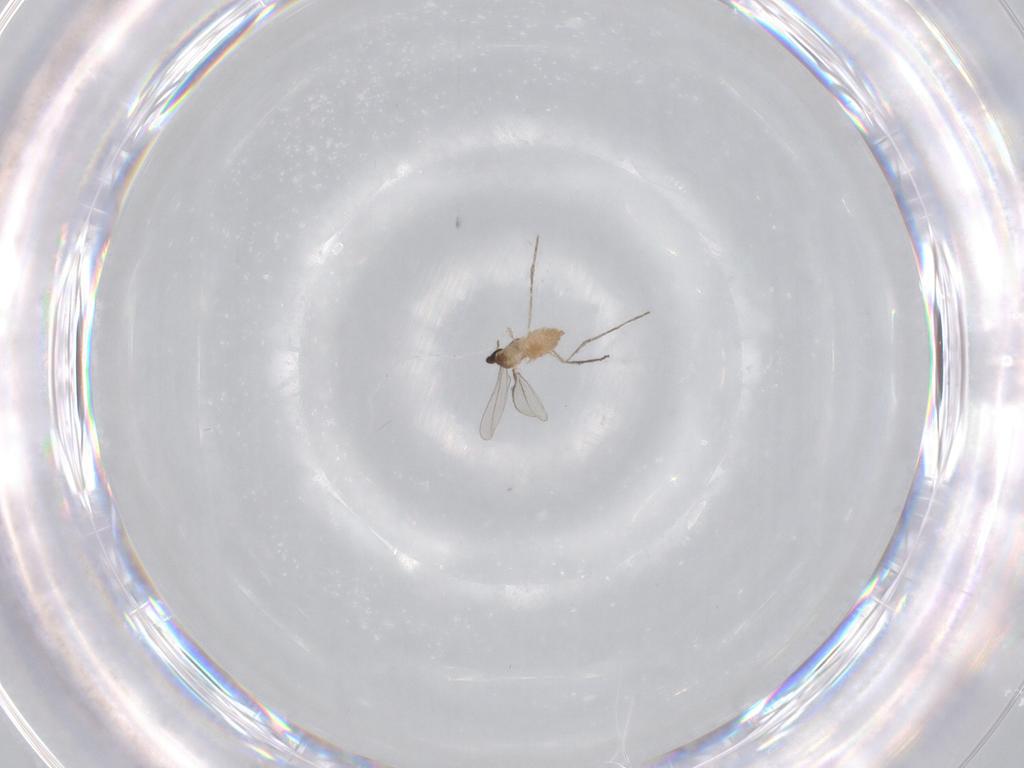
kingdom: Animalia
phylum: Arthropoda
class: Insecta
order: Diptera
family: Cecidomyiidae
